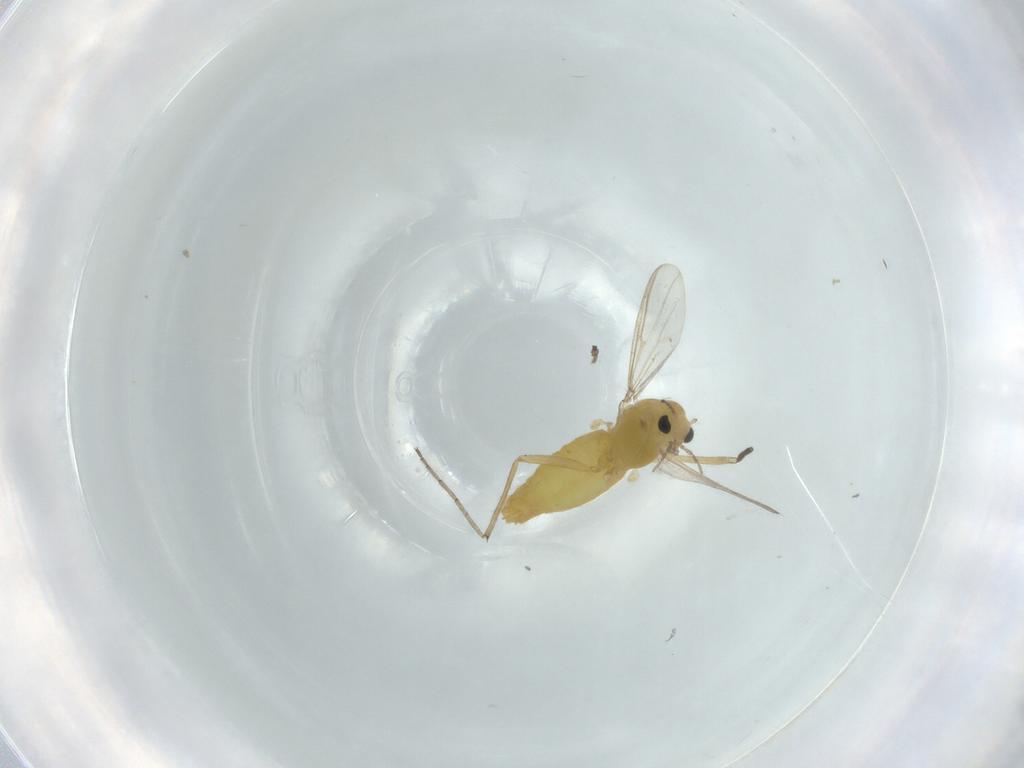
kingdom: Animalia
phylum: Arthropoda
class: Insecta
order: Diptera
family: Chironomidae
